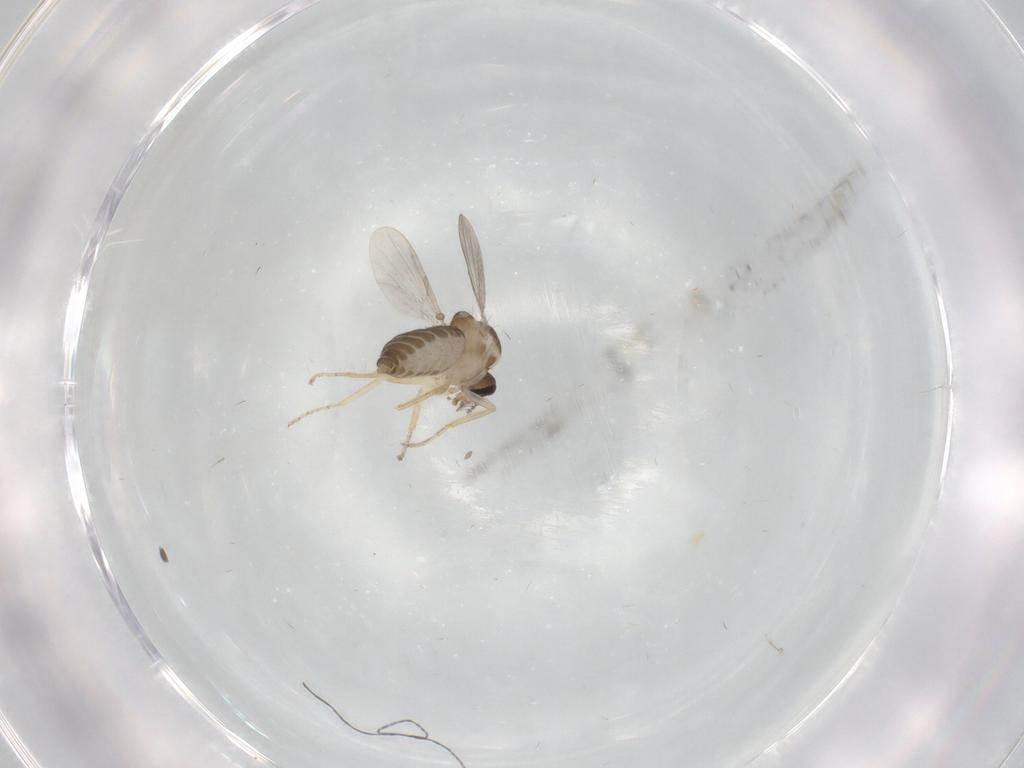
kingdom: Animalia
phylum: Arthropoda
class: Insecta
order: Diptera
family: Ceratopogonidae
